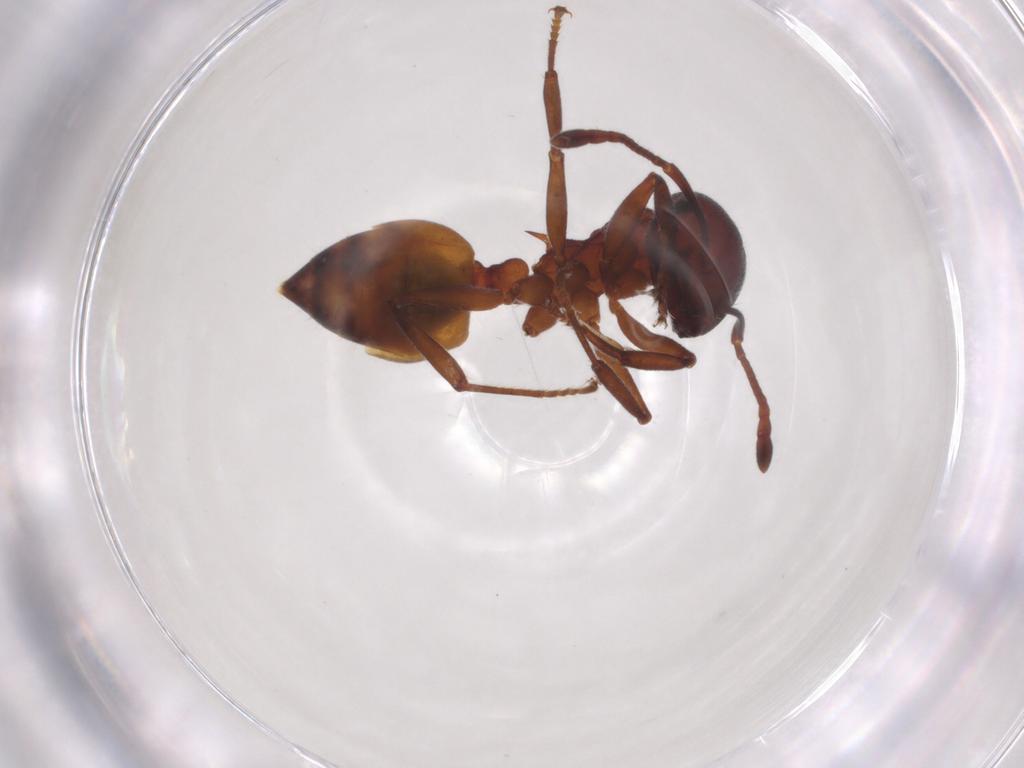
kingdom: Animalia
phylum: Arthropoda
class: Insecta
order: Hymenoptera
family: Formicidae
